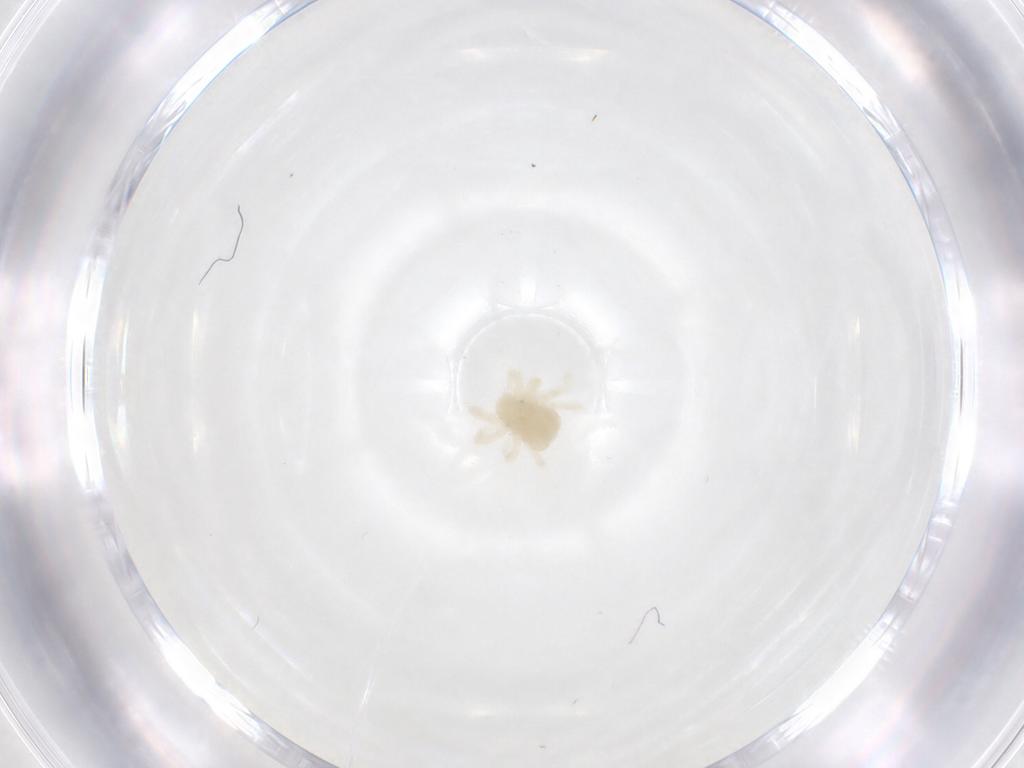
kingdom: Animalia
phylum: Arthropoda
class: Arachnida
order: Trombidiformes
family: Anystidae
